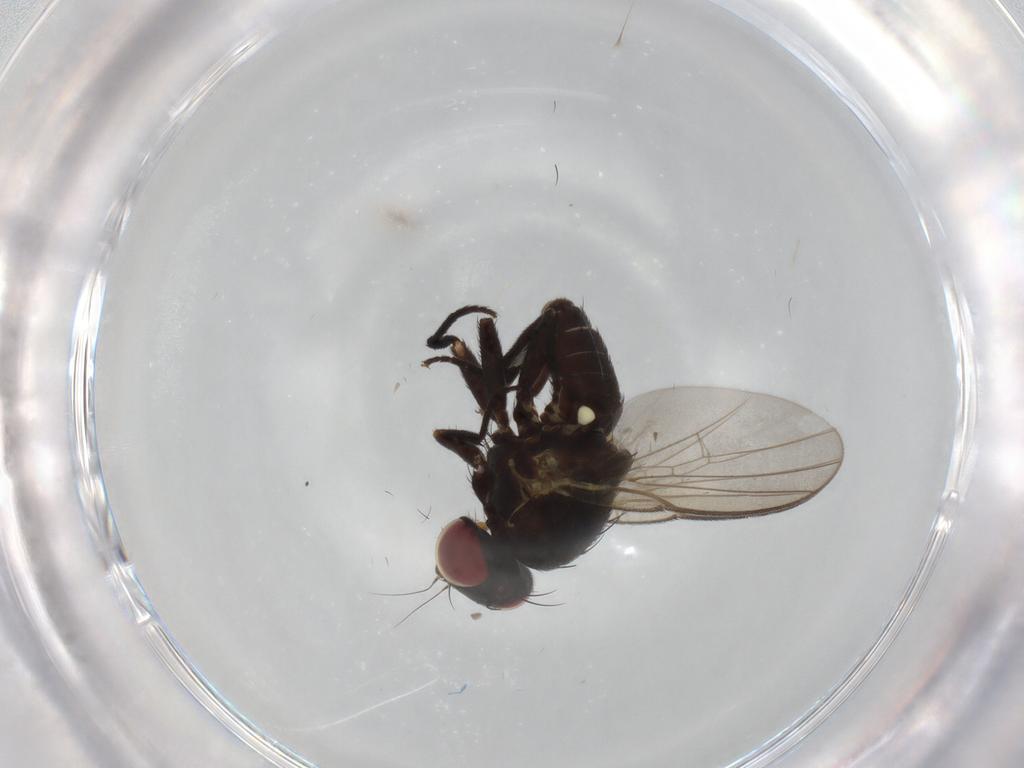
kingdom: Animalia
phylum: Arthropoda
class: Insecta
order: Diptera
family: Agromyzidae
